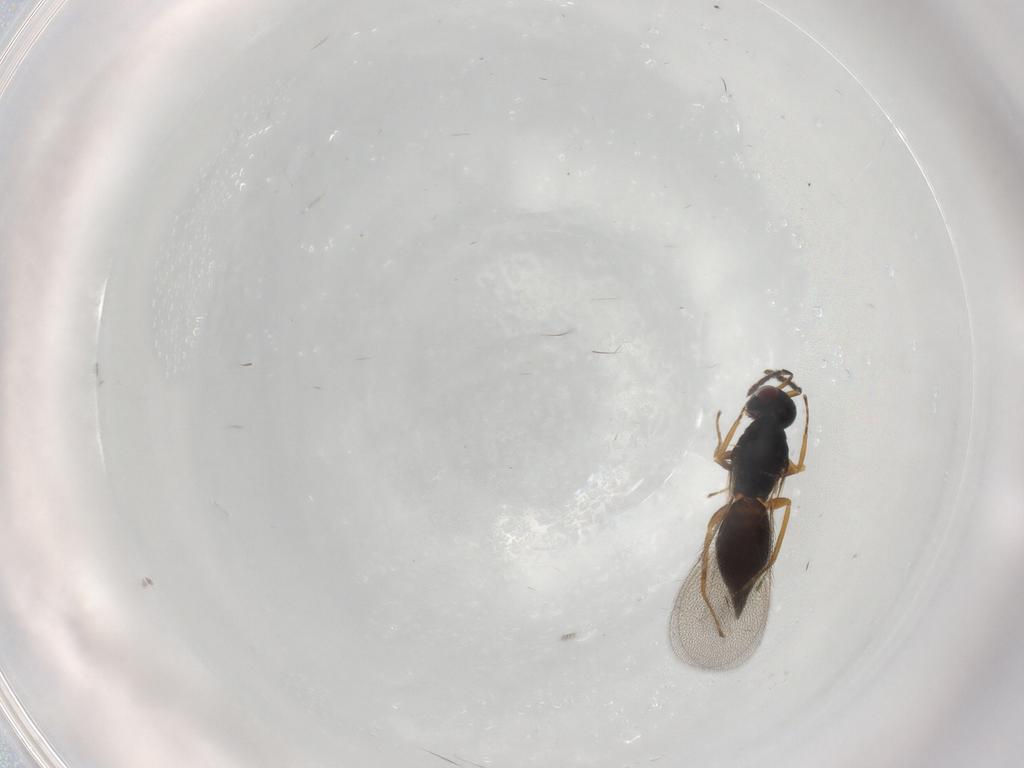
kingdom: Animalia
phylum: Arthropoda
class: Insecta
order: Hymenoptera
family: Eulophidae
